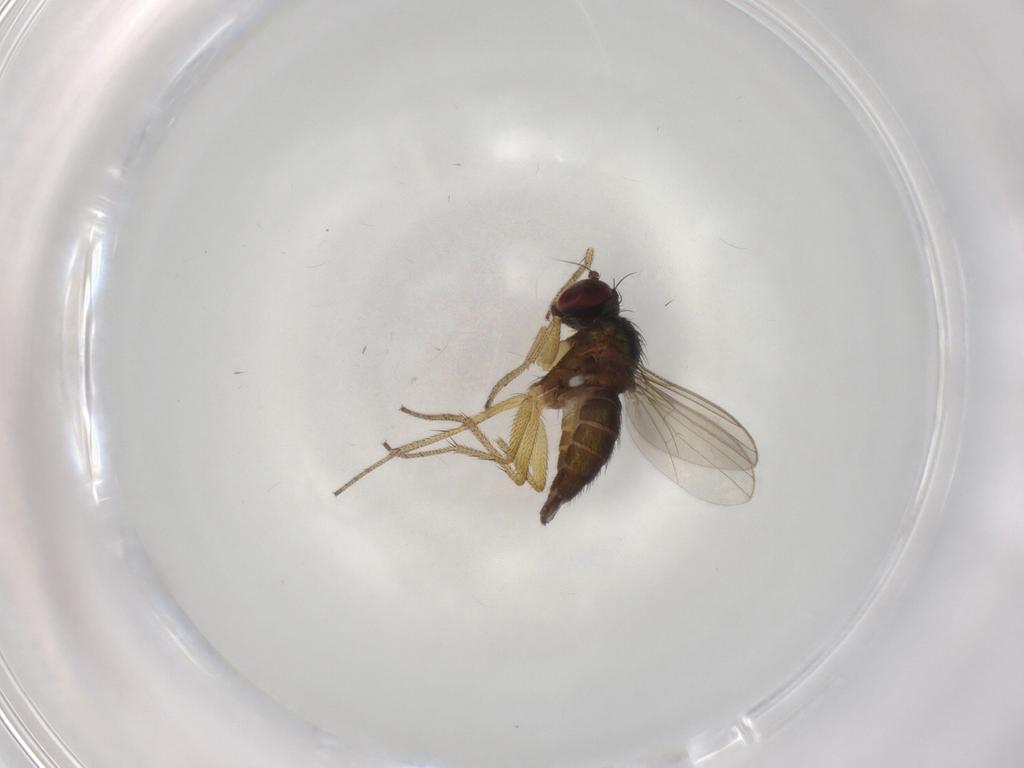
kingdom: Animalia
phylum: Arthropoda
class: Insecta
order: Diptera
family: Dolichopodidae
